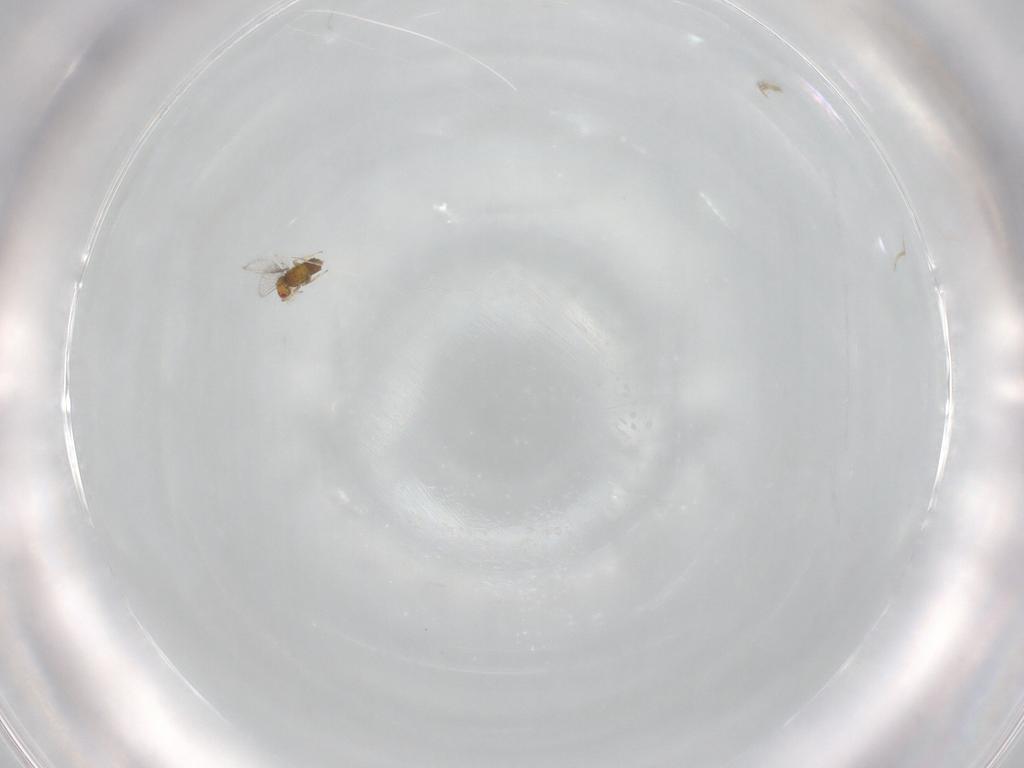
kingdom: Animalia
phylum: Arthropoda
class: Insecta
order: Hymenoptera
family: Trichogrammatidae
